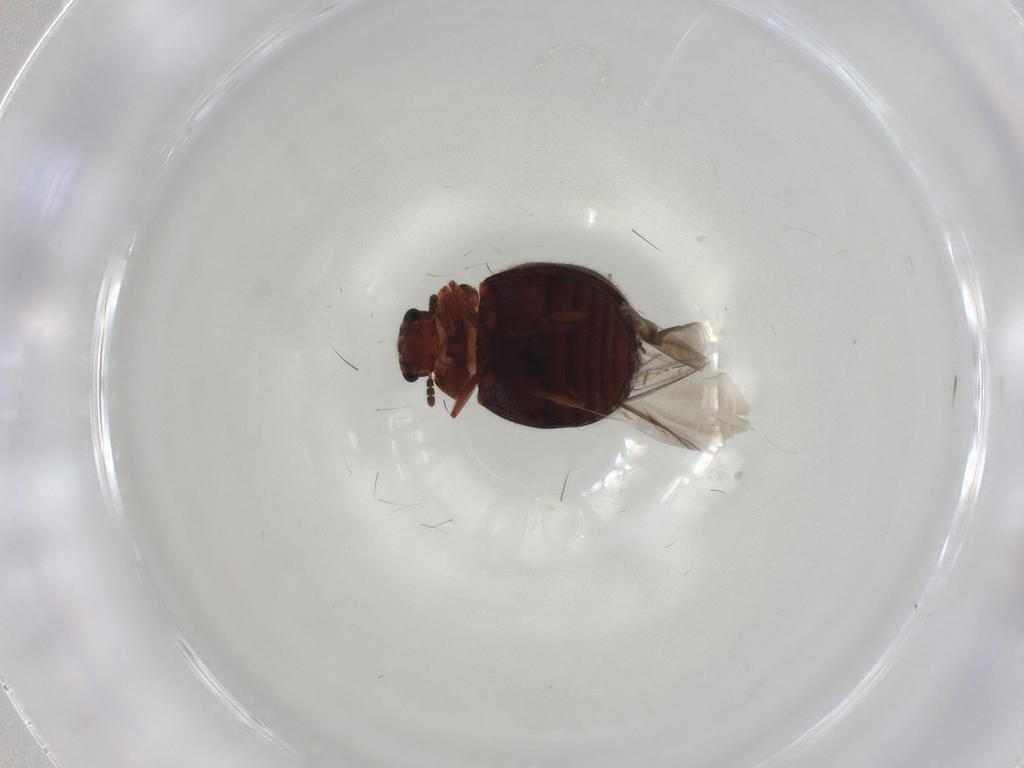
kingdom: Animalia
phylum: Arthropoda
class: Insecta
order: Coleoptera
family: Sphindidae
